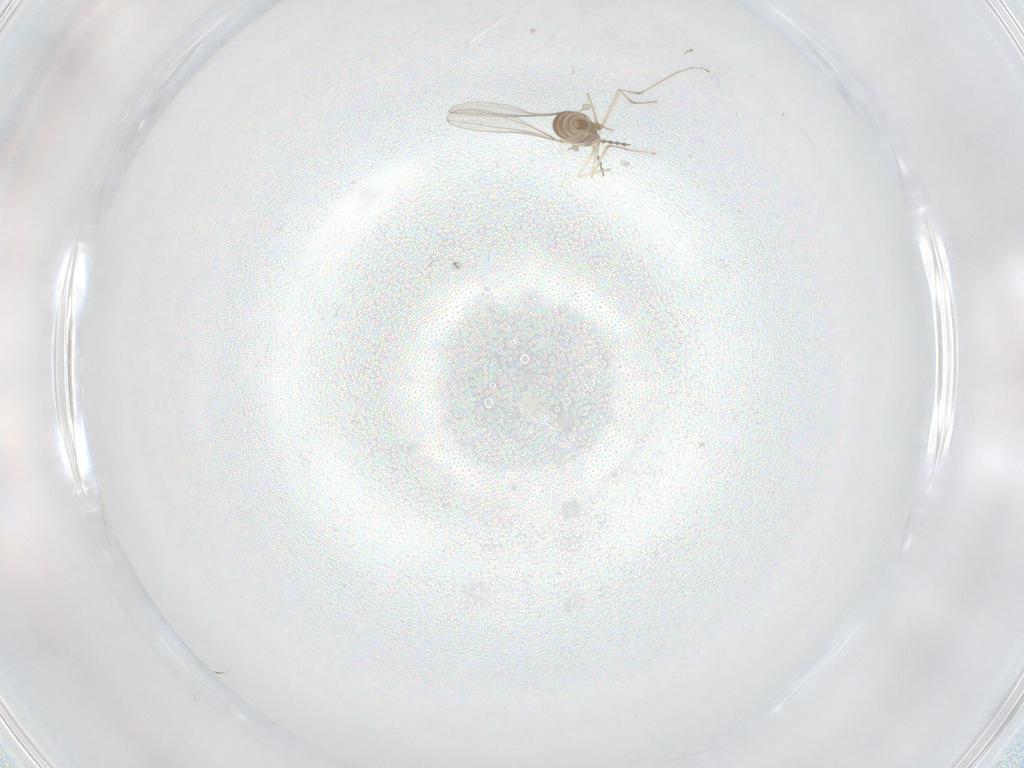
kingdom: Animalia
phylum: Arthropoda
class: Insecta
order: Diptera
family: Cecidomyiidae
